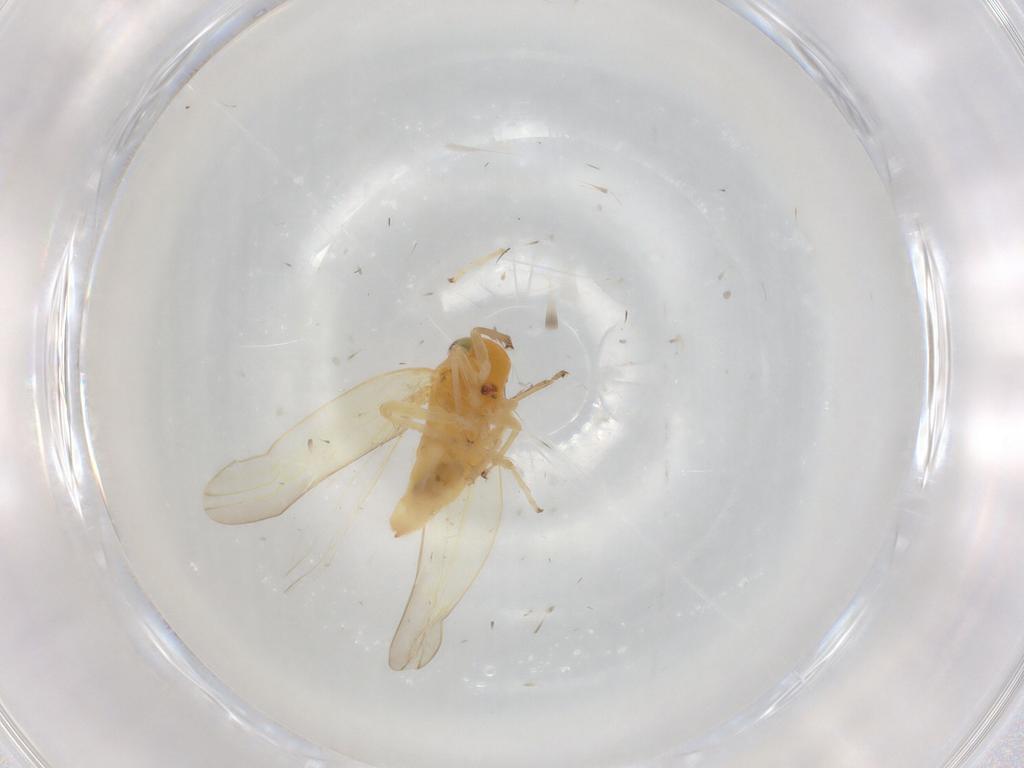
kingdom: Animalia
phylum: Arthropoda
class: Insecta
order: Hemiptera
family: Cicadellidae
